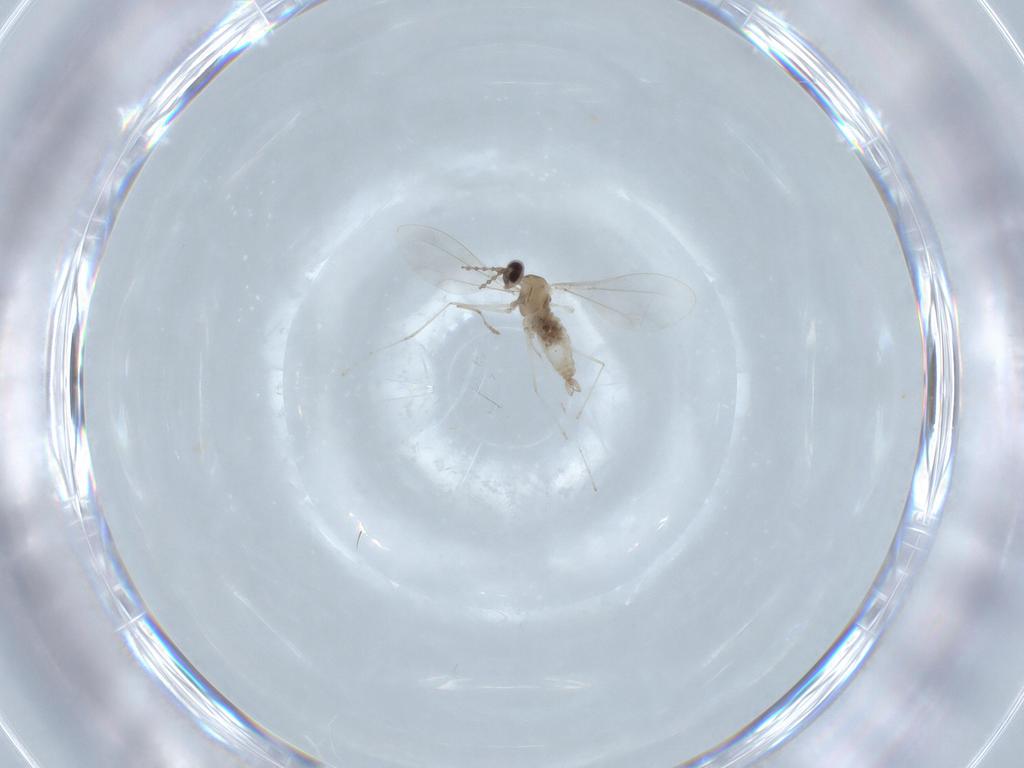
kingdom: Animalia
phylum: Arthropoda
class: Insecta
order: Diptera
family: Cecidomyiidae
